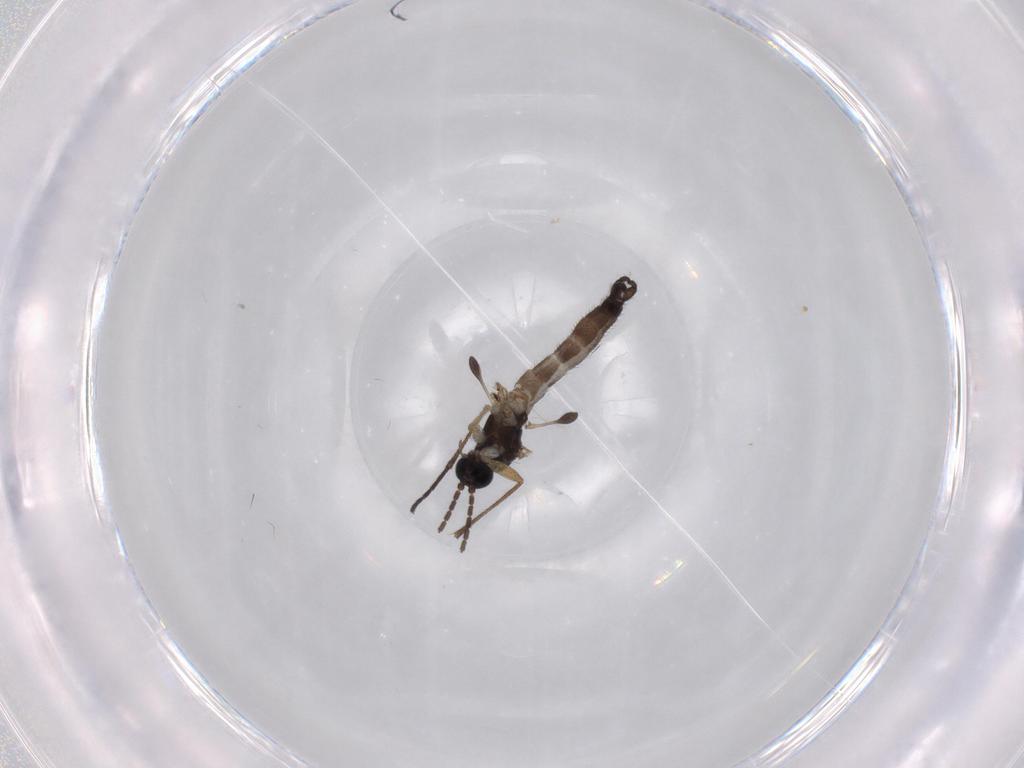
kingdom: Animalia
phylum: Arthropoda
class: Insecta
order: Diptera
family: Sciaridae
